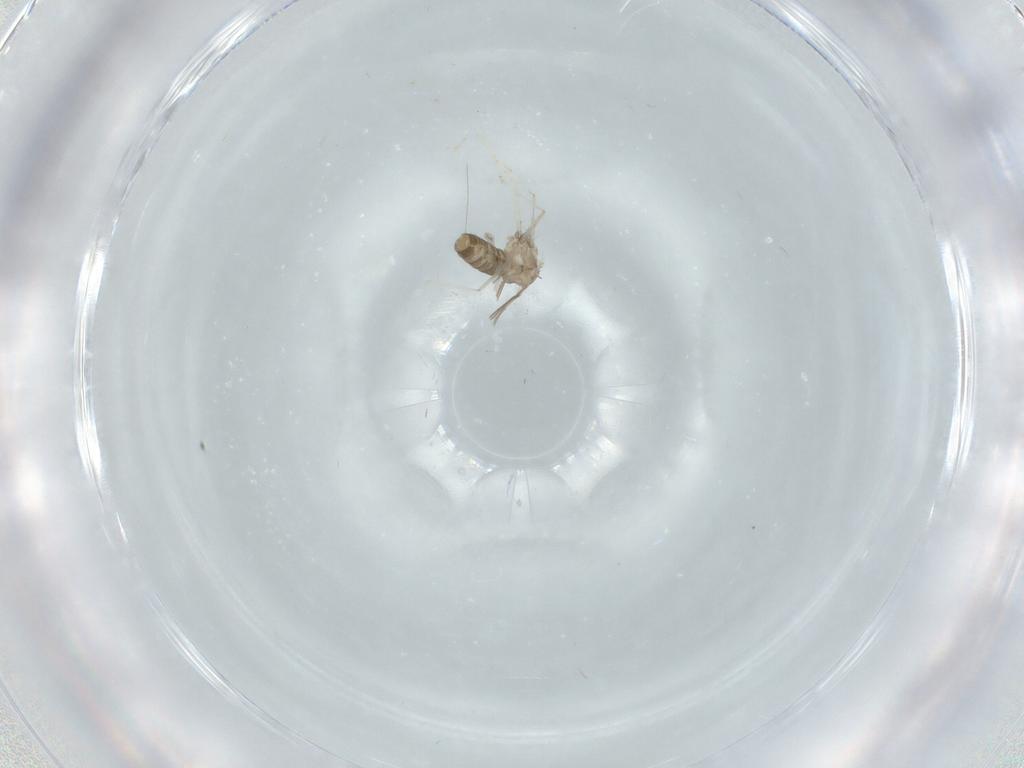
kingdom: Animalia
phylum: Arthropoda
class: Insecta
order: Diptera
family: Cecidomyiidae
